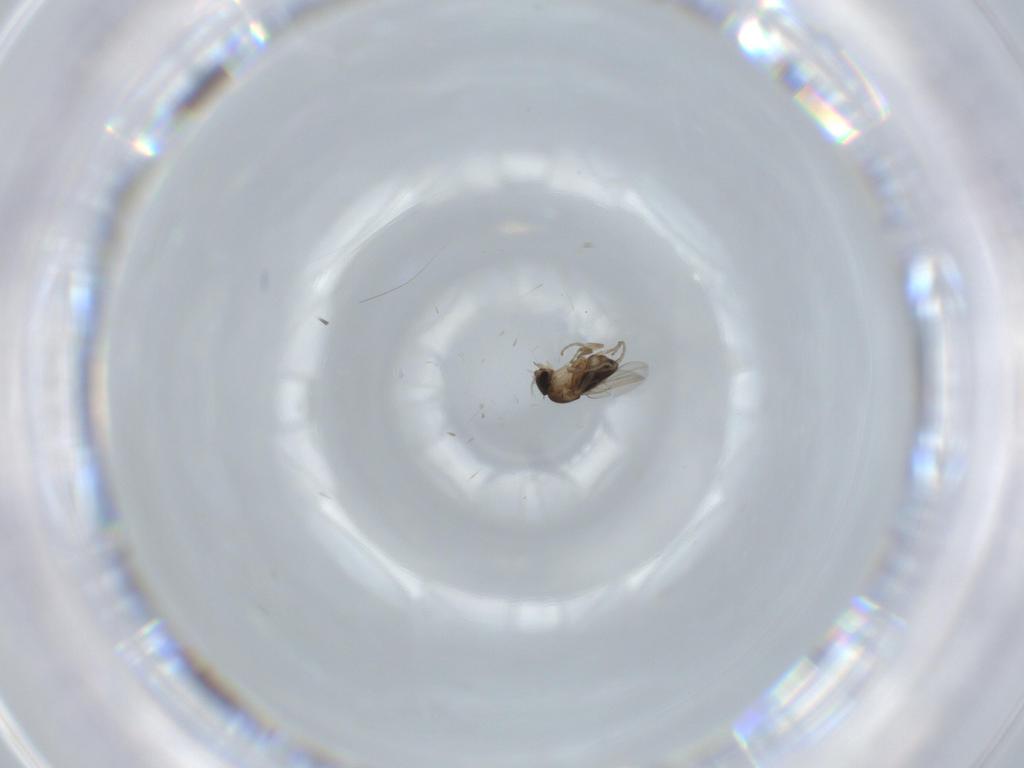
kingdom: Animalia
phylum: Arthropoda
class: Insecta
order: Diptera
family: Phoridae
